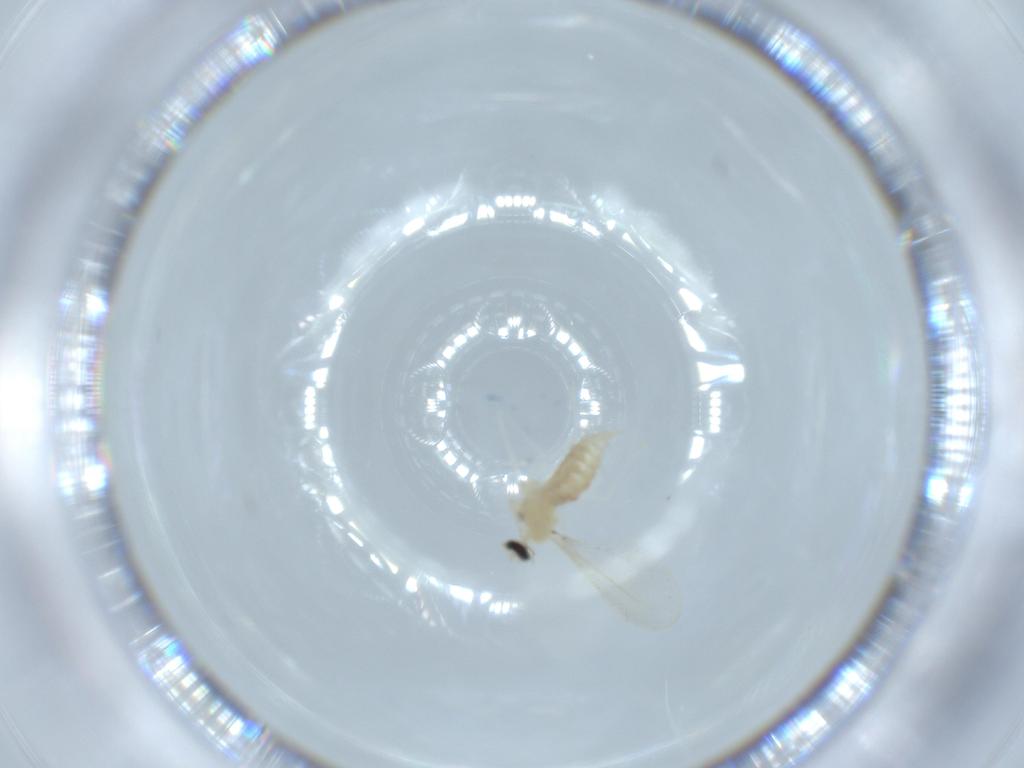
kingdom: Animalia
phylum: Arthropoda
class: Insecta
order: Diptera
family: Cecidomyiidae
